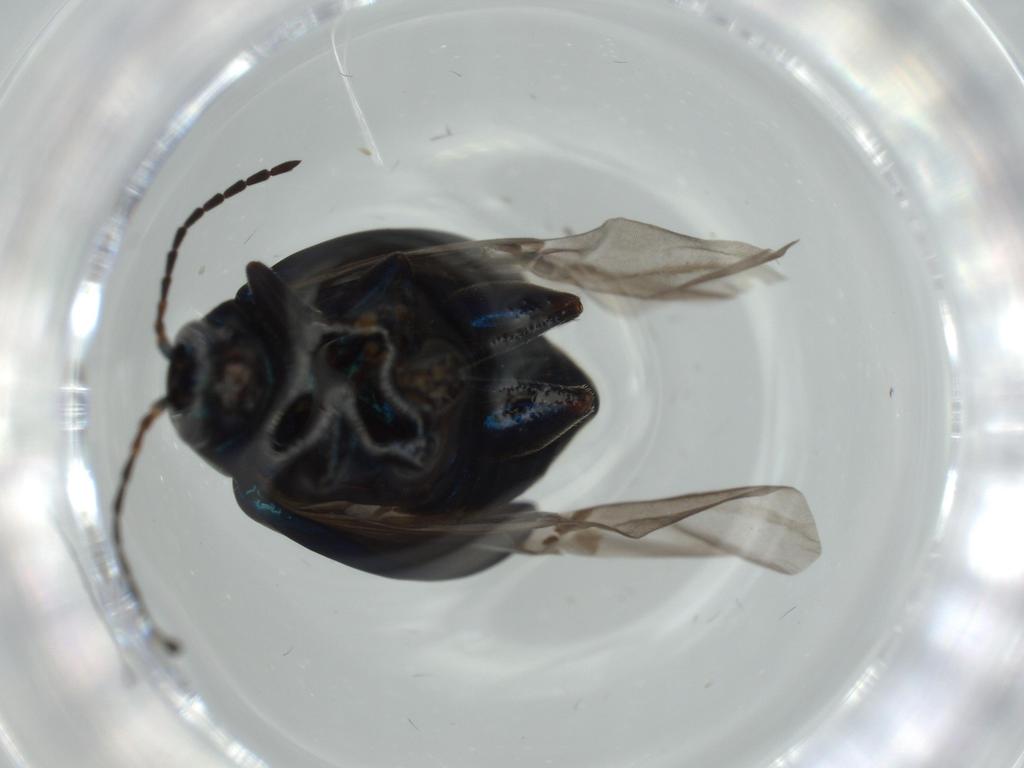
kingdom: Animalia
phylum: Arthropoda
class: Insecta
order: Coleoptera
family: Chrysomelidae
